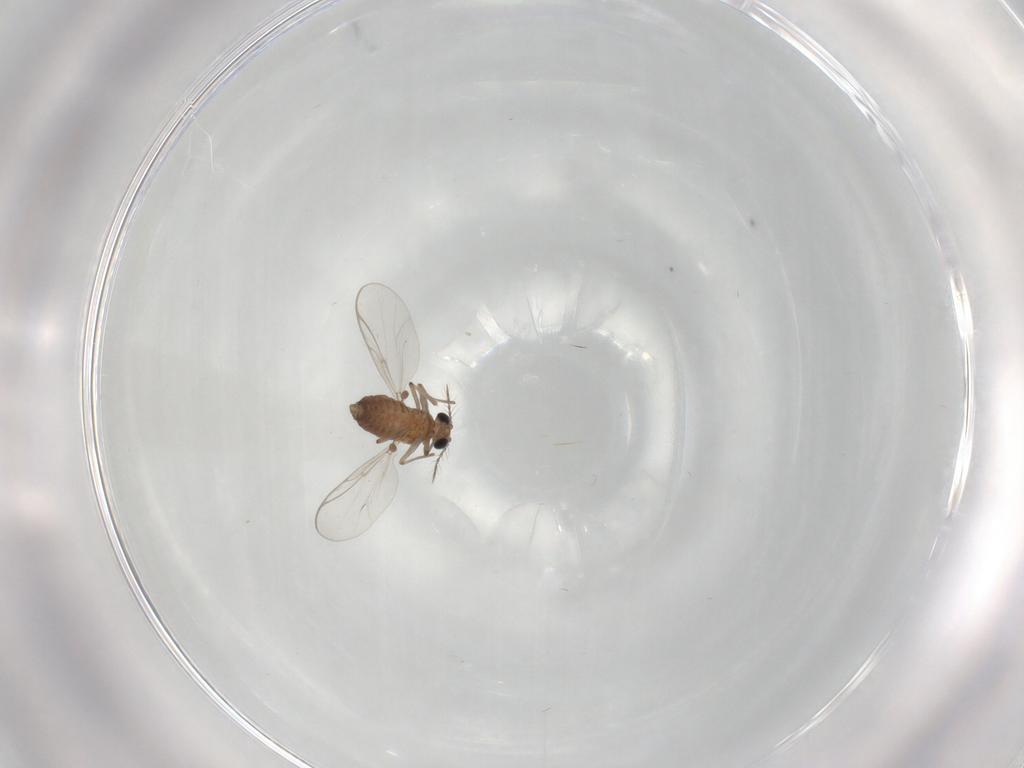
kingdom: Animalia
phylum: Arthropoda
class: Insecta
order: Diptera
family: Chironomidae
